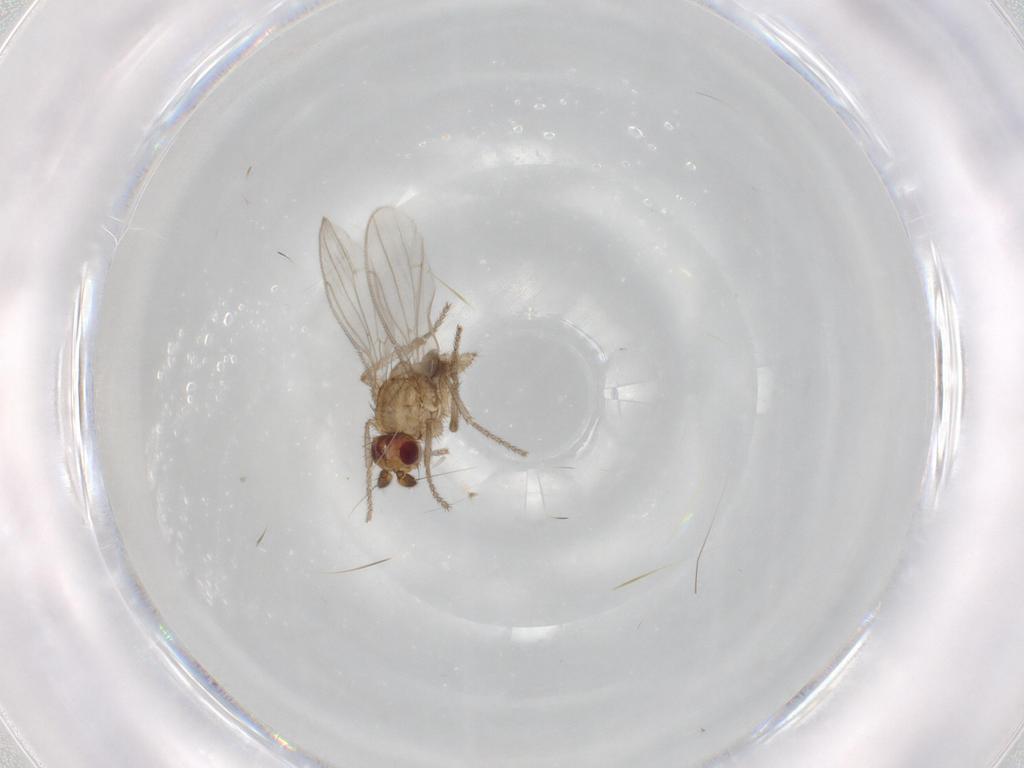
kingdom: Animalia
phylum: Arthropoda
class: Insecta
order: Diptera
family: Sphaeroceridae
